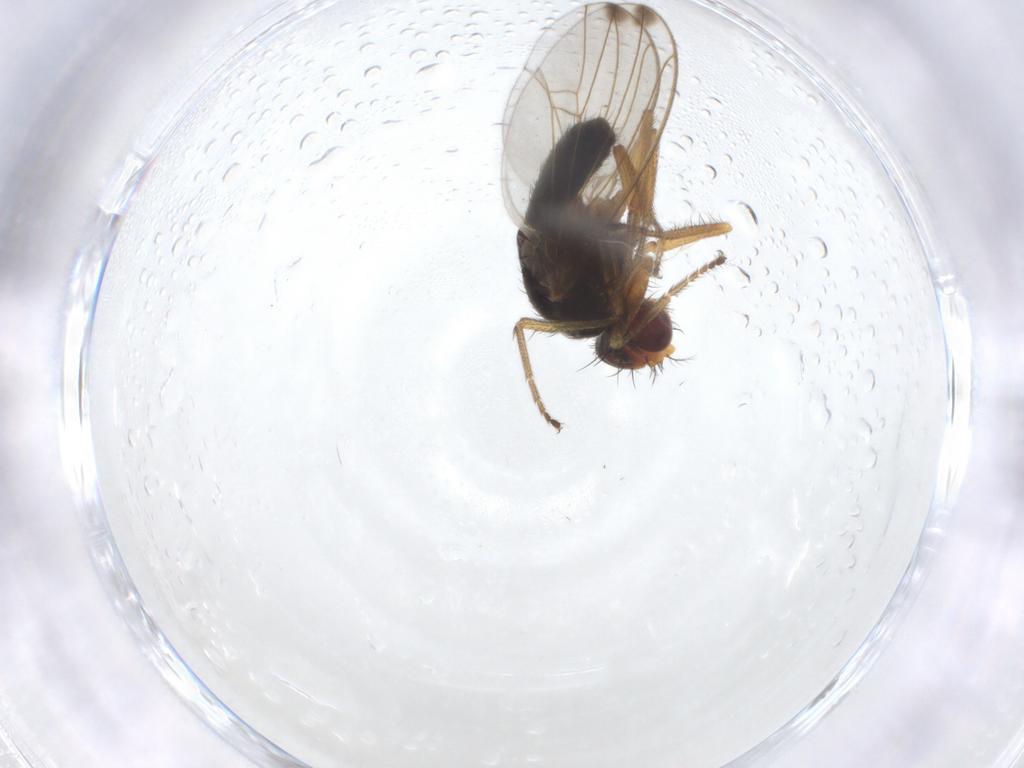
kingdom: Animalia
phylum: Arthropoda
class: Insecta
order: Diptera
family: Drosophilidae
